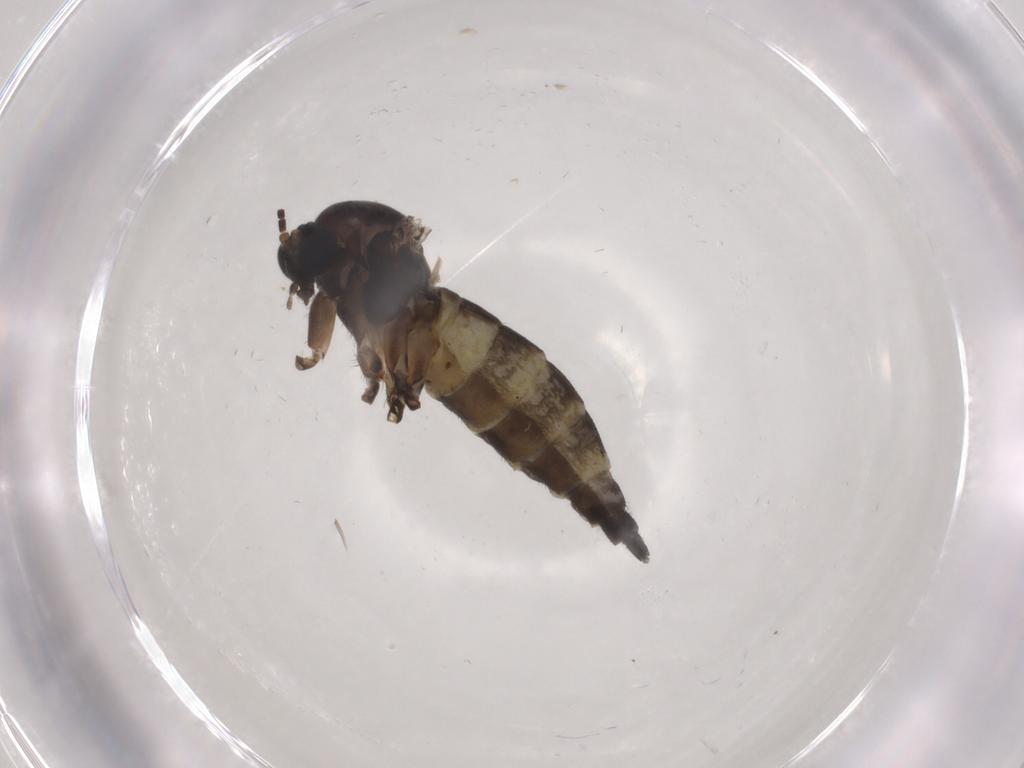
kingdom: Animalia
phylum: Arthropoda
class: Insecta
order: Diptera
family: Sciaridae
